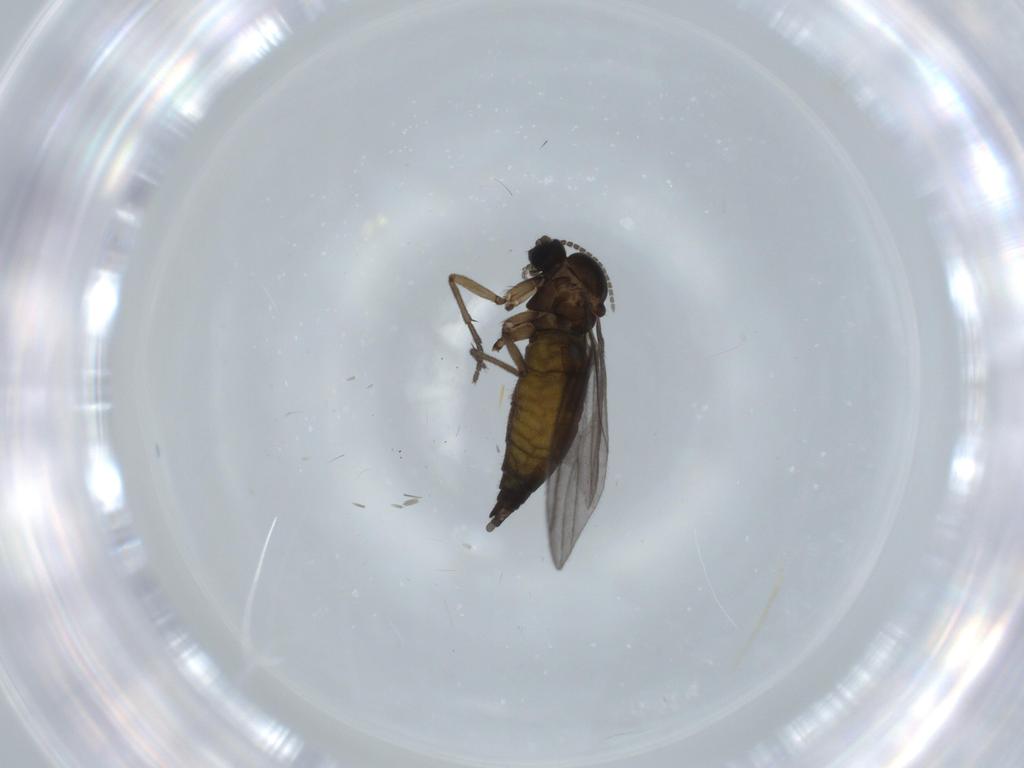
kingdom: Animalia
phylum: Arthropoda
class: Insecta
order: Diptera
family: Sciaridae
